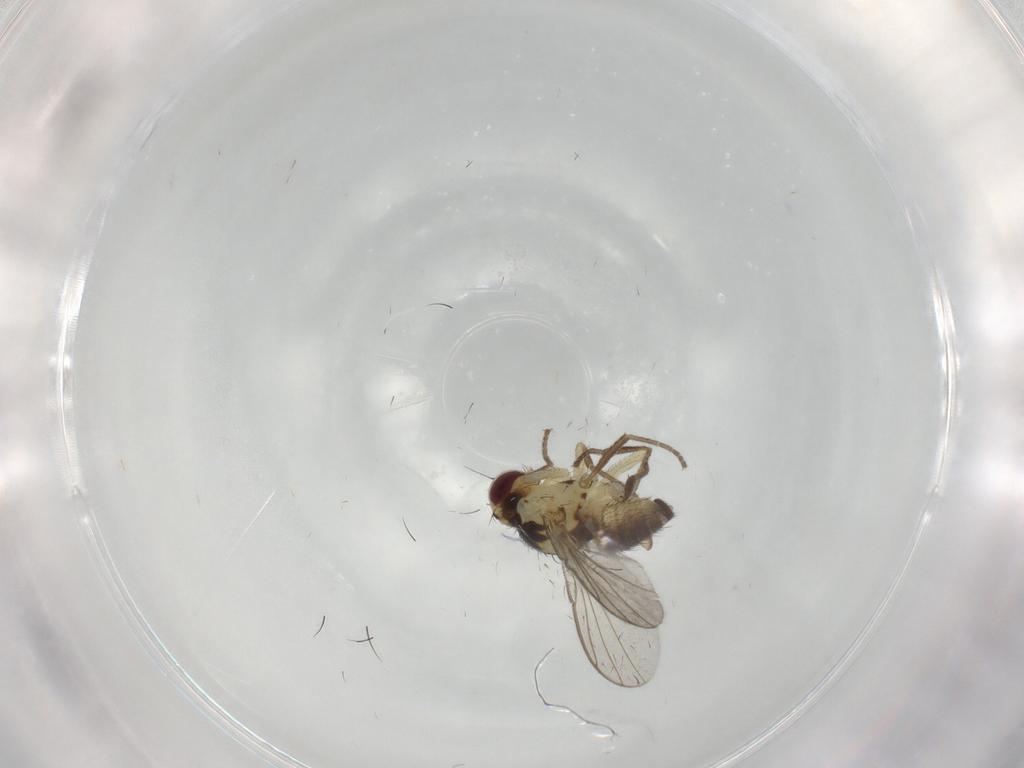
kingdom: Animalia
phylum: Arthropoda
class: Insecta
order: Diptera
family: Agromyzidae
